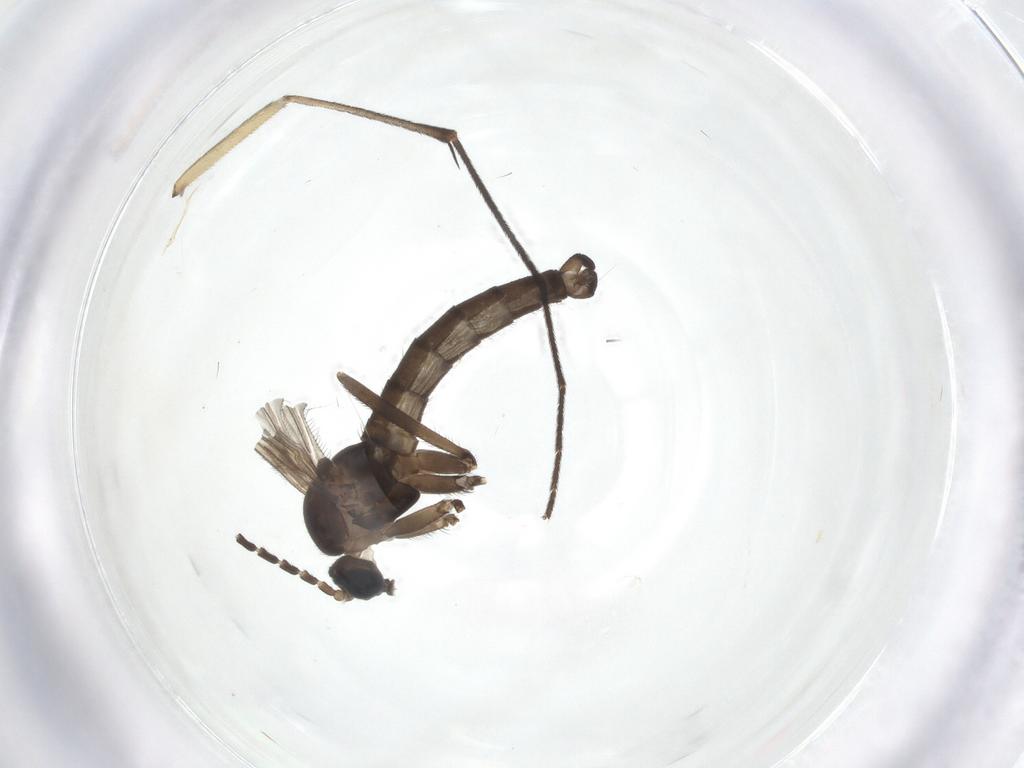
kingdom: Animalia
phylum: Arthropoda
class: Insecta
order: Diptera
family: Sciaridae
